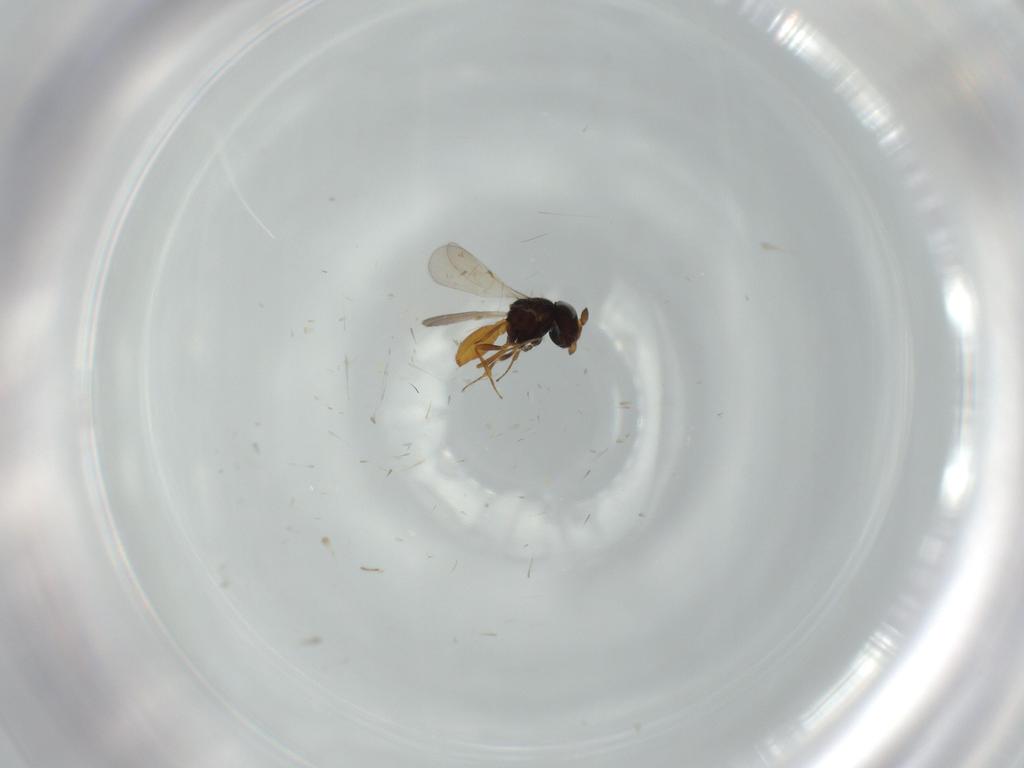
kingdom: Animalia
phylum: Arthropoda
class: Insecta
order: Hymenoptera
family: Scelionidae
